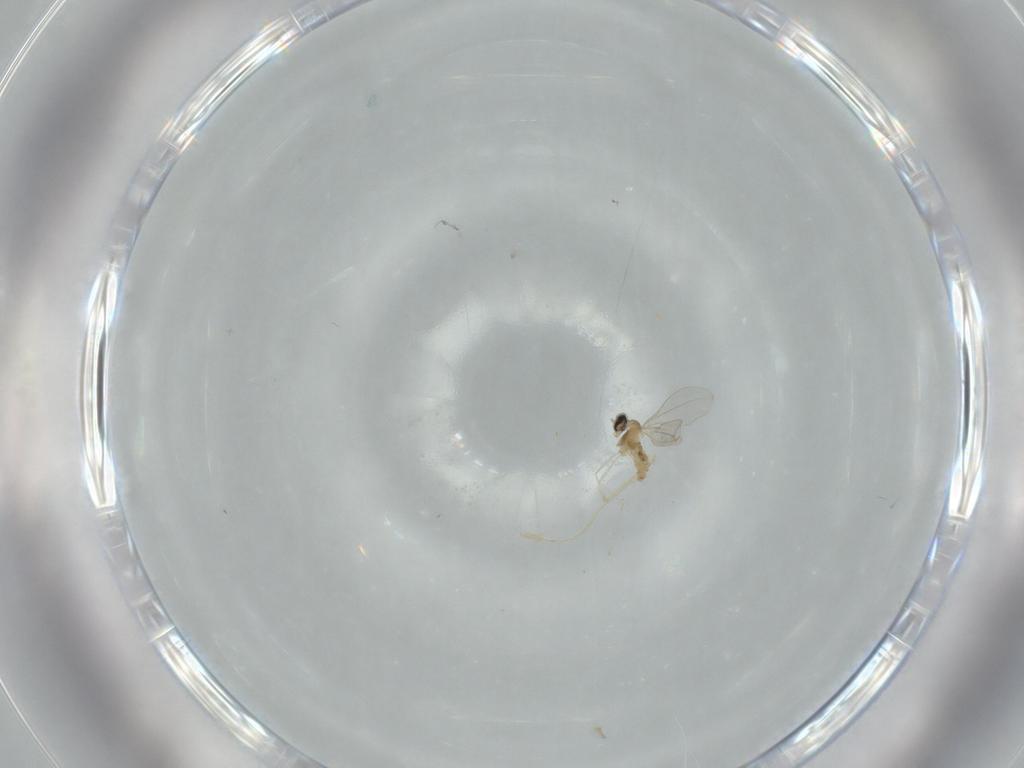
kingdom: Animalia
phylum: Arthropoda
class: Insecta
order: Diptera
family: Cecidomyiidae
